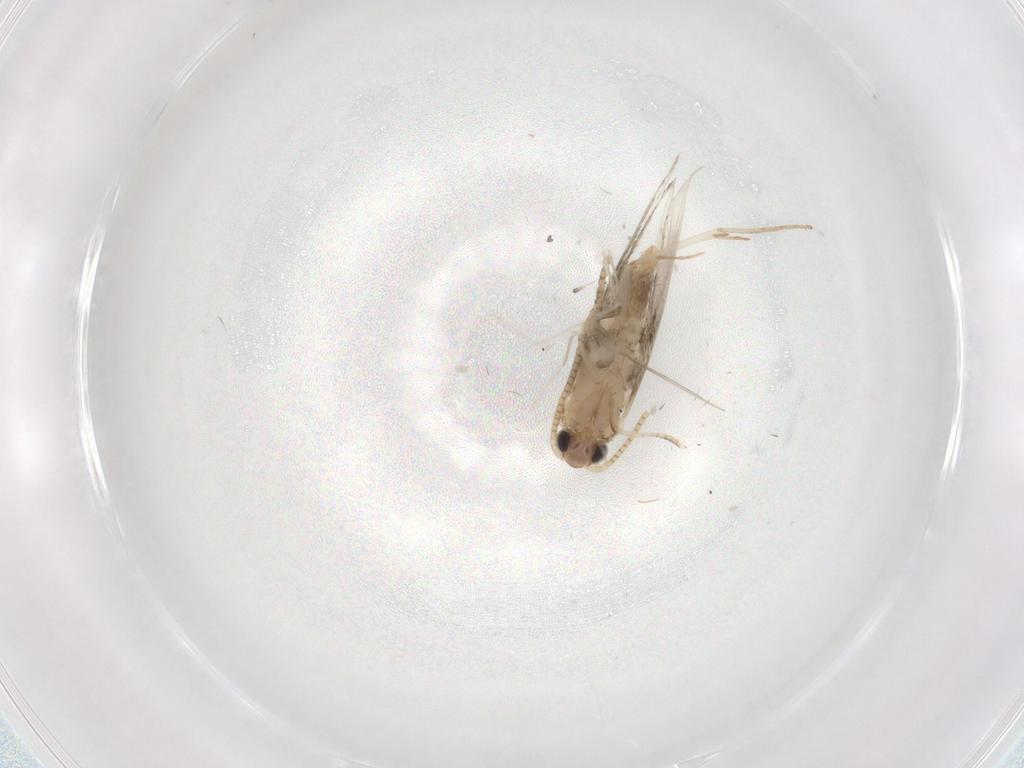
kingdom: Animalia
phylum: Arthropoda
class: Insecta
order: Lepidoptera
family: Tineidae
